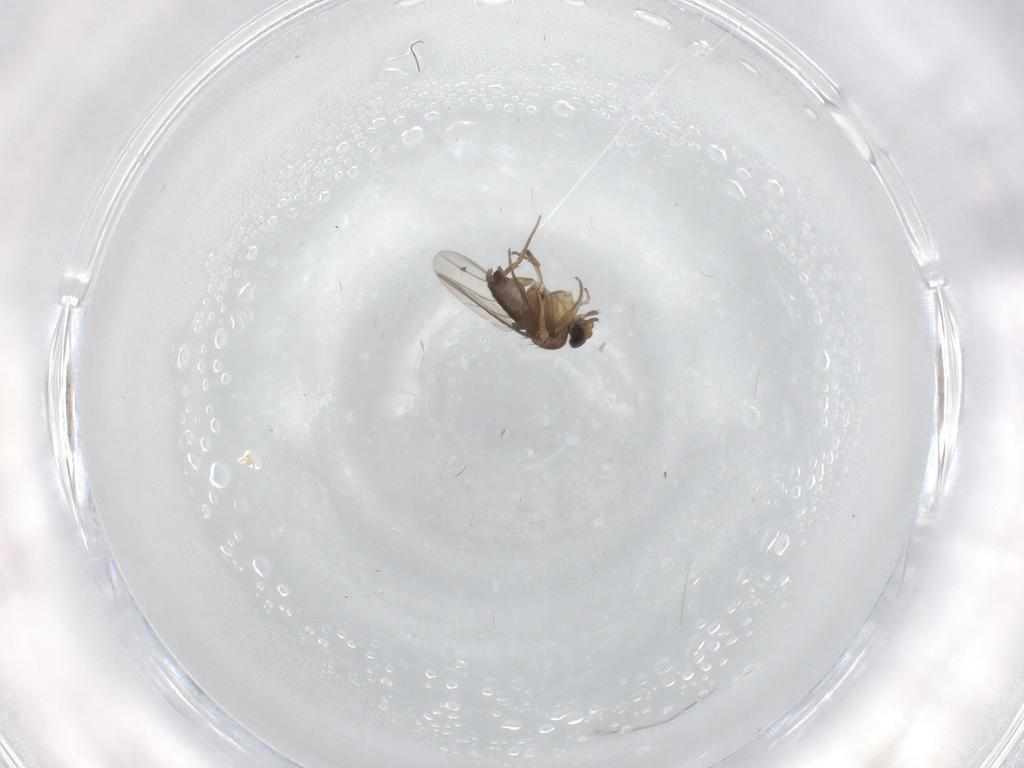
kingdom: Animalia
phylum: Arthropoda
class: Insecta
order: Diptera
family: Phoridae
